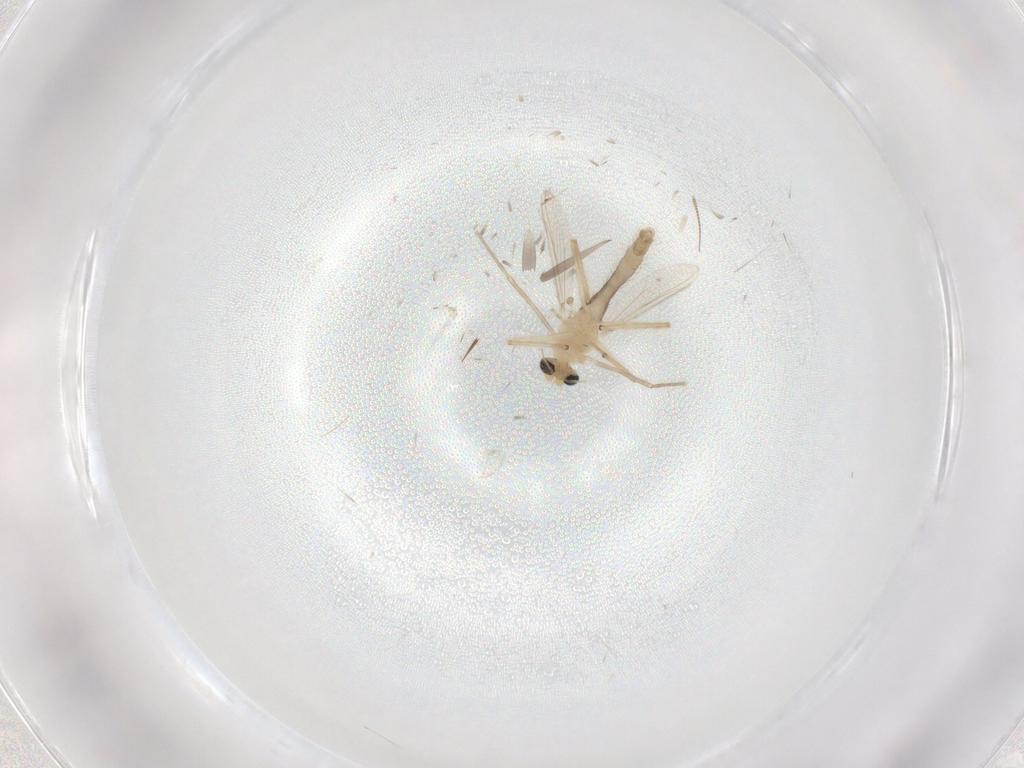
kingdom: Animalia
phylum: Arthropoda
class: Insecta
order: Diptera
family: Chironomidae
